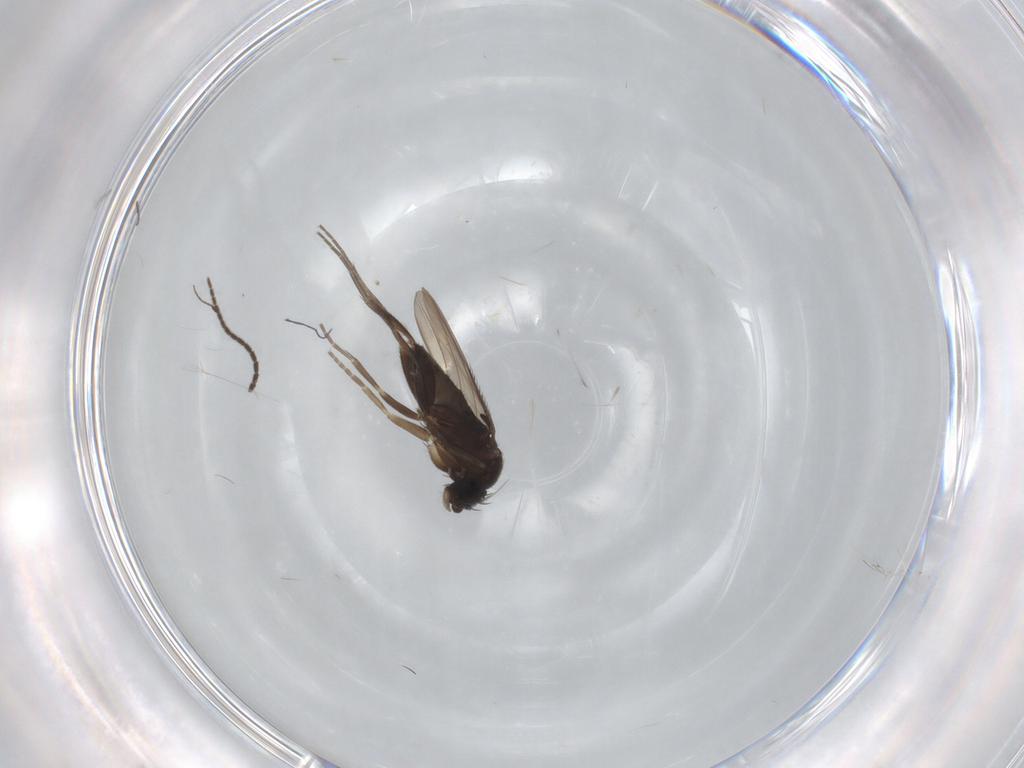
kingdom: Animalia
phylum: Arthropoda
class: Insecta
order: Diptera
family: Phoridae
